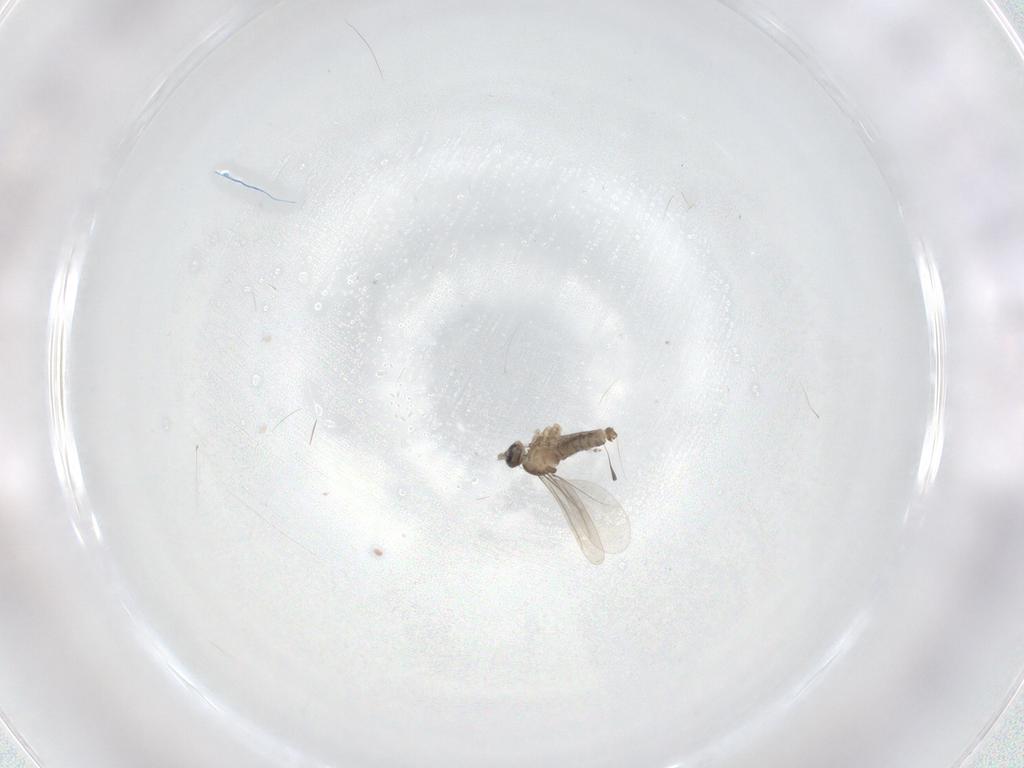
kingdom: Animalia
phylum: Arthropoda
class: Insecta
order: Diptera
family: Cecidomyiidae
